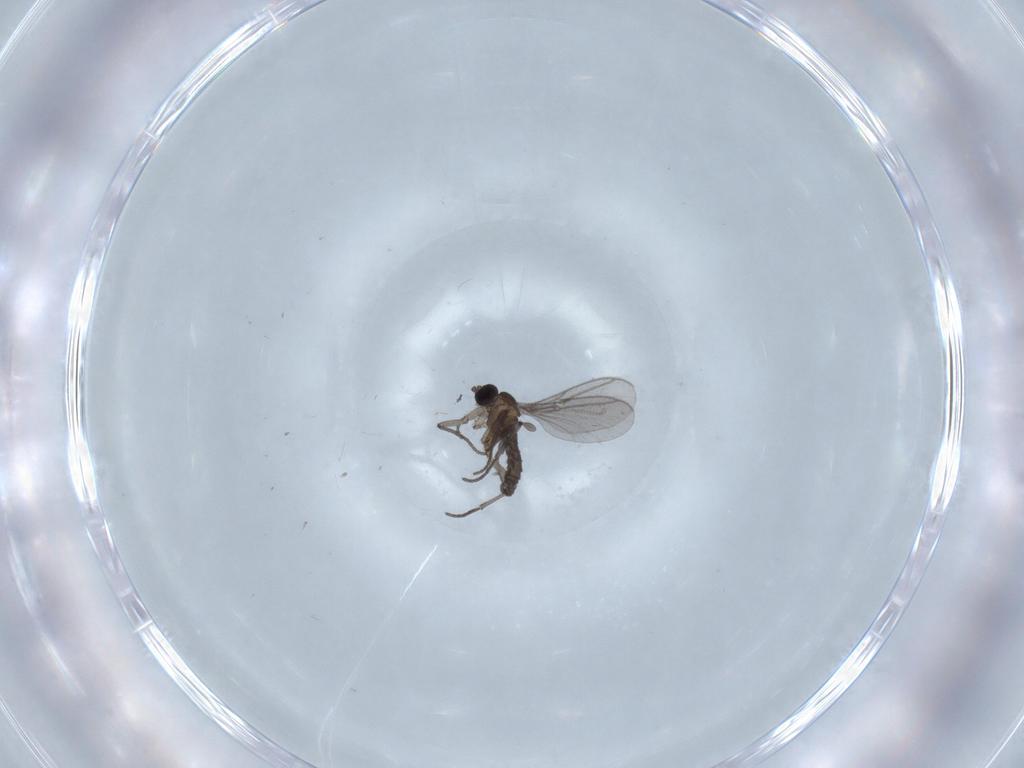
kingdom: Animalia
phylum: Arthropoda
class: Insecta
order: Diptera
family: Chironomidae
